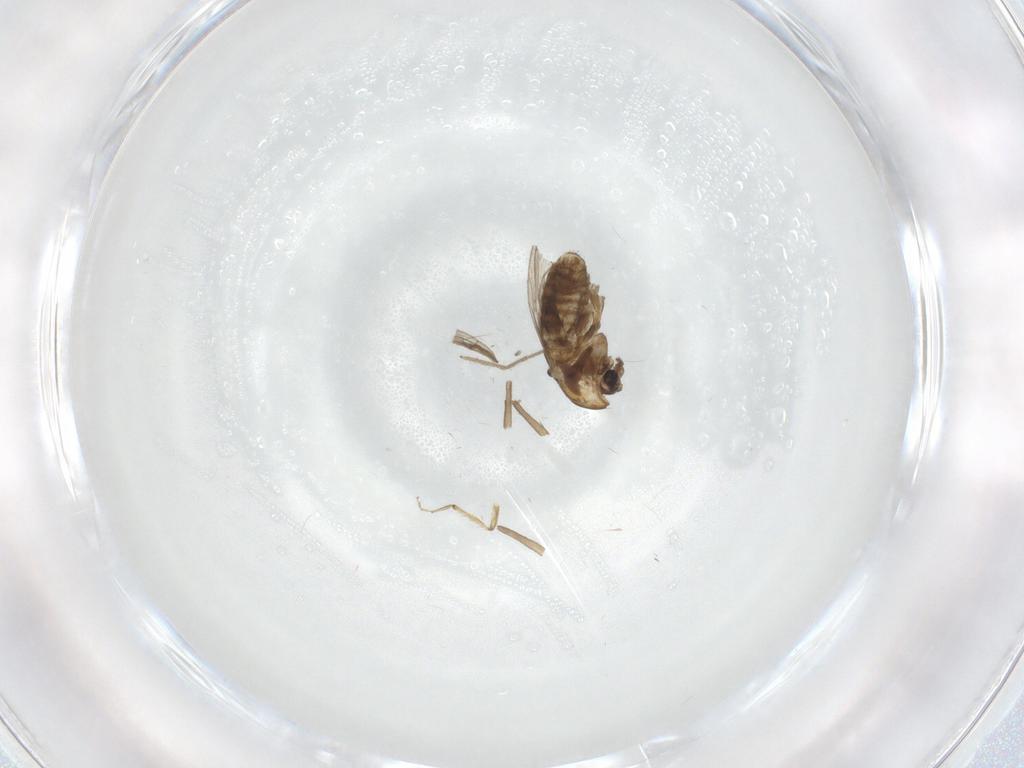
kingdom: Animalia
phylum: Arthropoda
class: Insecta
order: Diptera
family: Chironomidae
